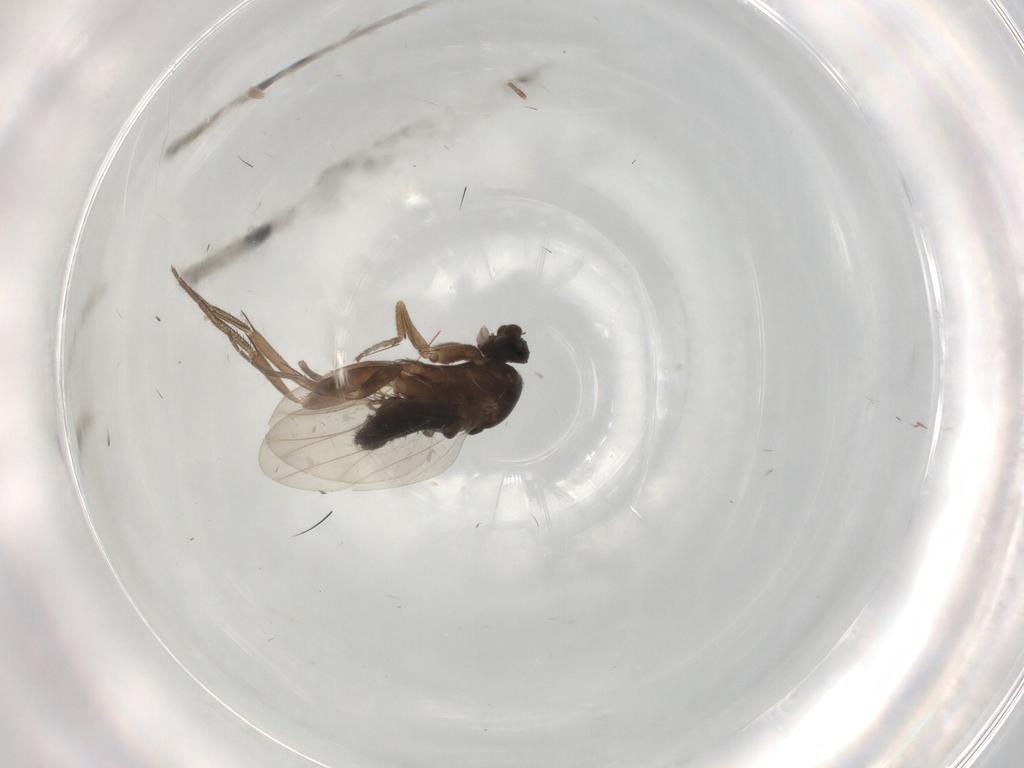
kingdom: Animalia
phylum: Arthropoda
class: Insecta
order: Diptera
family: Phoridae
